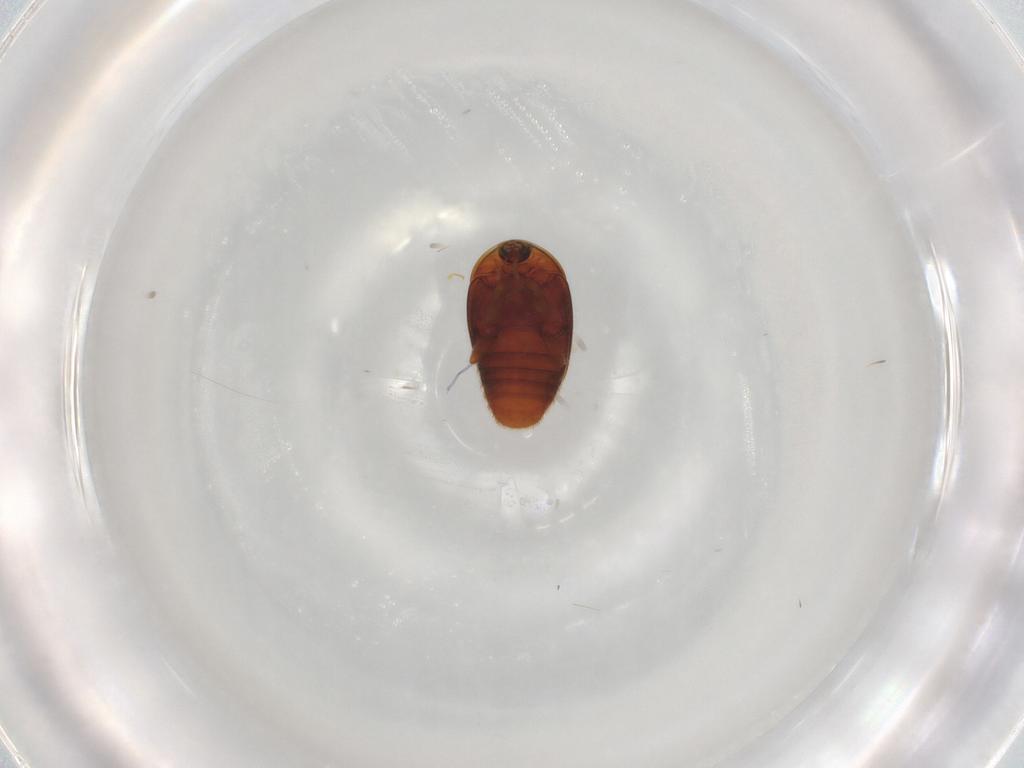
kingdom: Animalia
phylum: Arthropoda
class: Insecta
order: Coleoptera
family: Corylophidae
